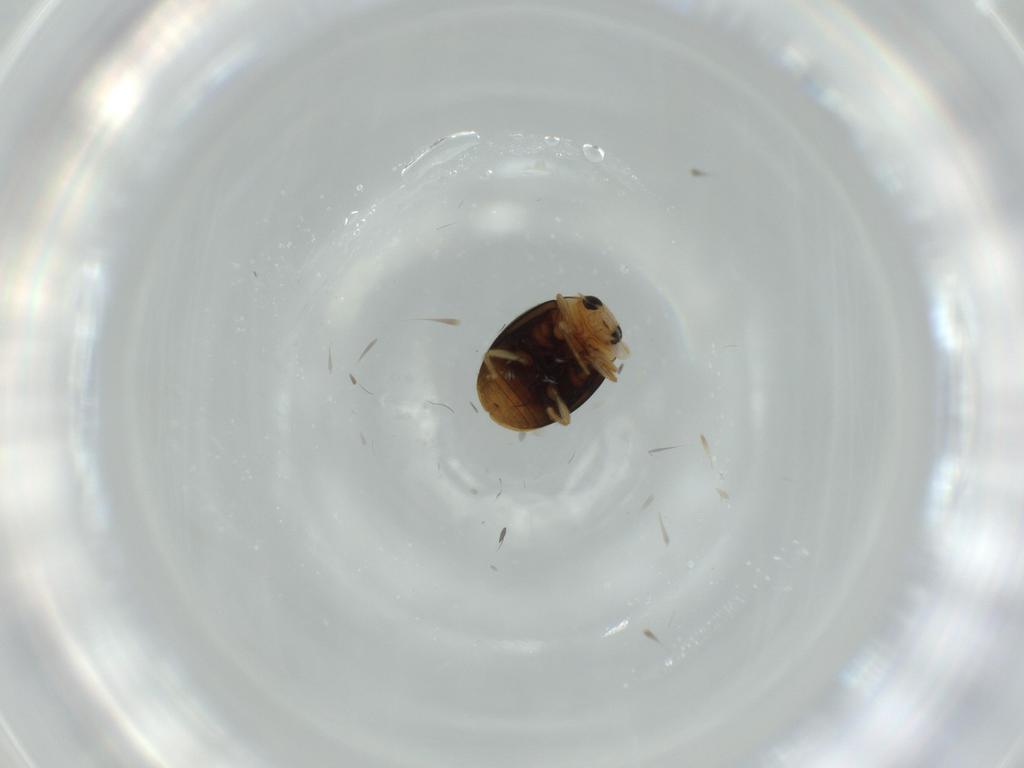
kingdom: Animalia
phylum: Arthropoda
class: Insecta
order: Coleoptera
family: Coccinellidae
